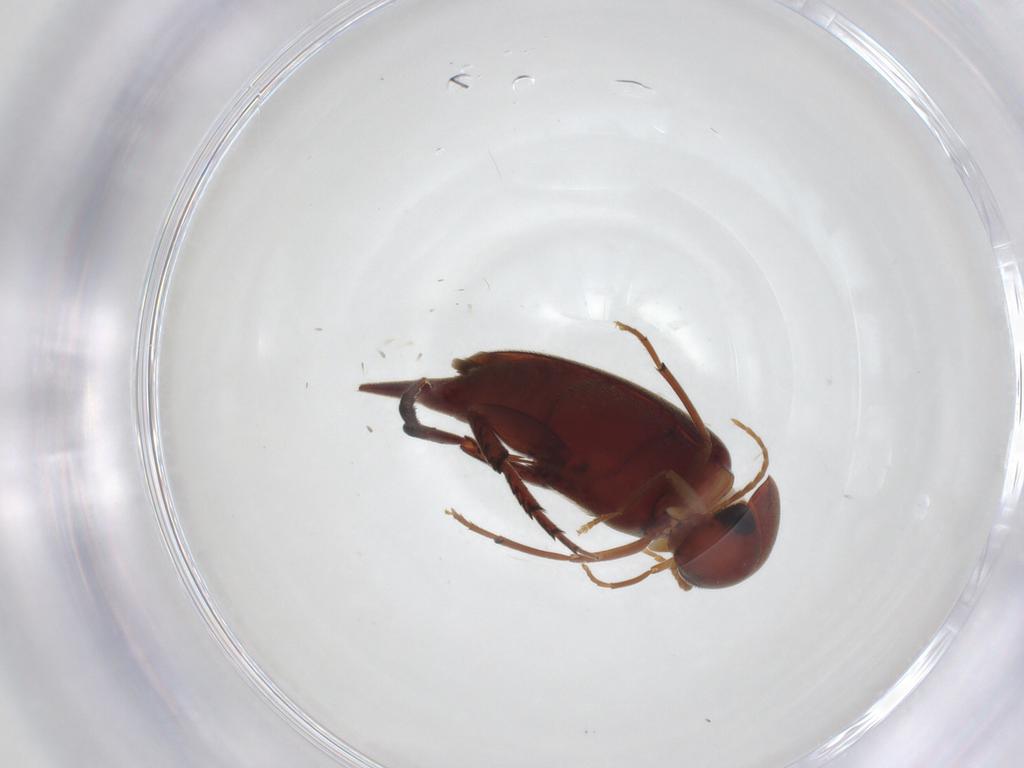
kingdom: Animalia
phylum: Arthropoda
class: Insecta
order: Coleoptera
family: Mordellidae
